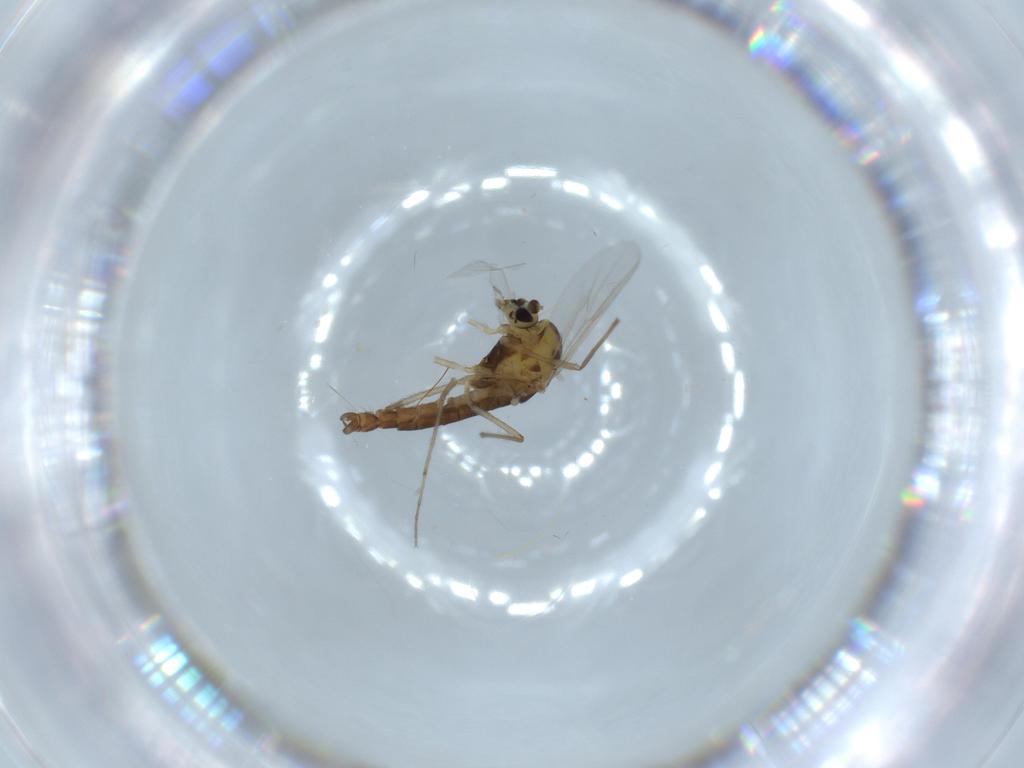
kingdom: Animalia
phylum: Arthropoda
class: Insecta
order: Diptera
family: Chironomidae
